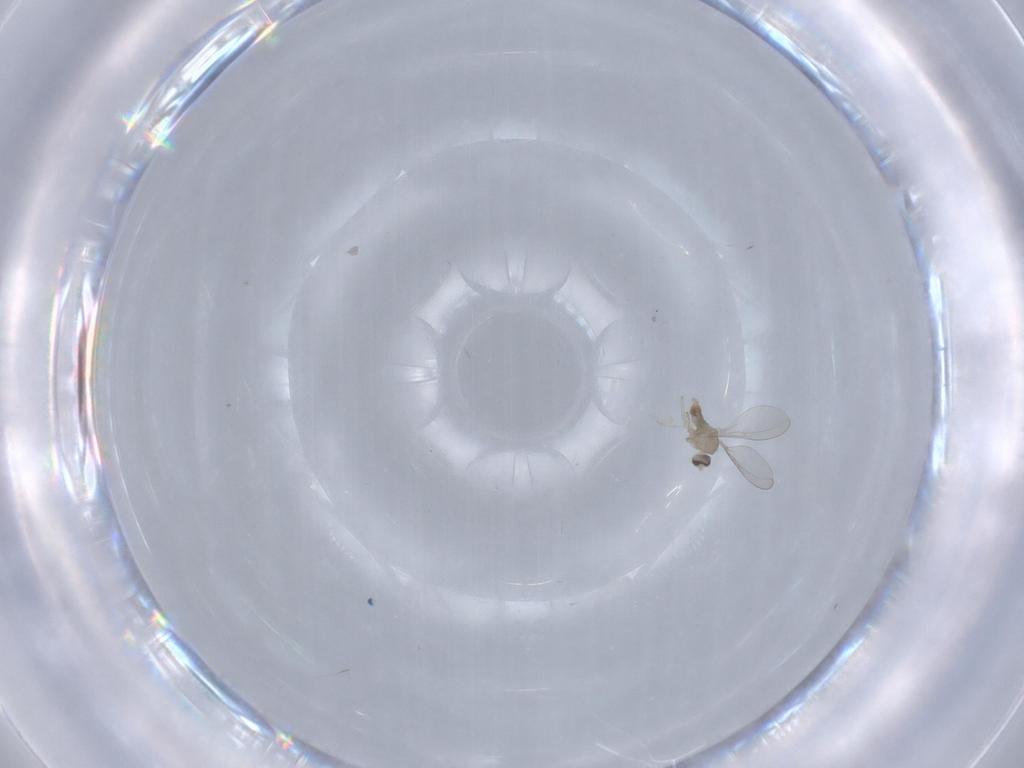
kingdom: Animalia
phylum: Arthropoda
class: Insecta
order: Diptera
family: Cecidomyiidae
